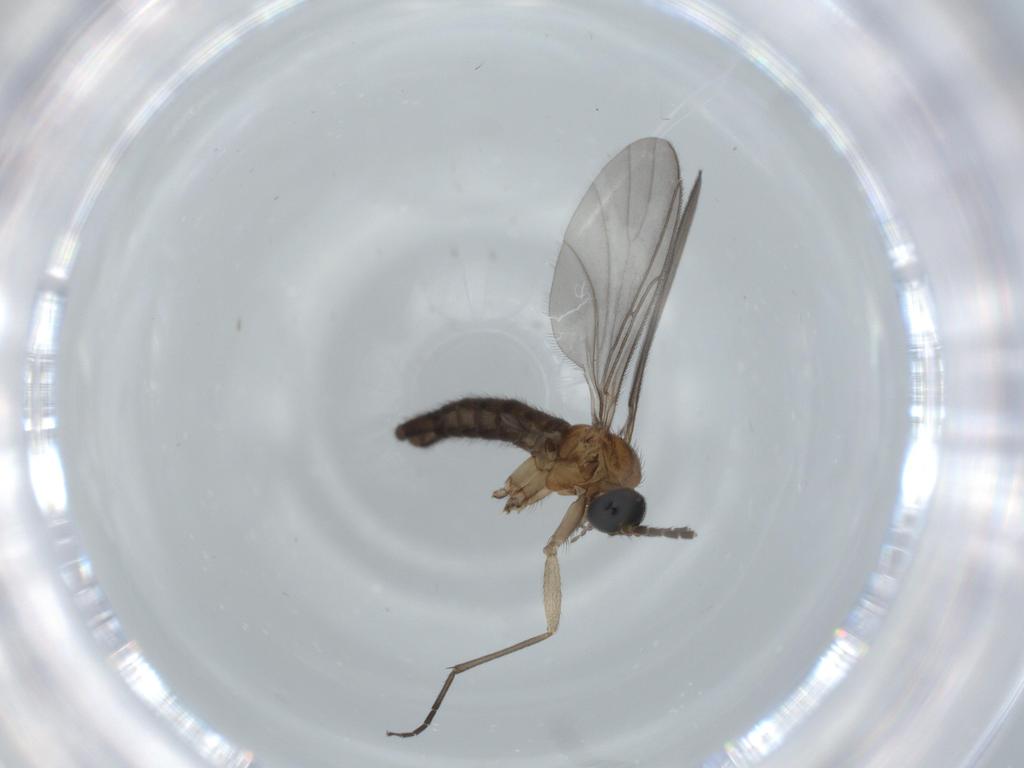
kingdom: Animalia
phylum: Arthropoda
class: Insecta
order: Diptera
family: Sciaridae
